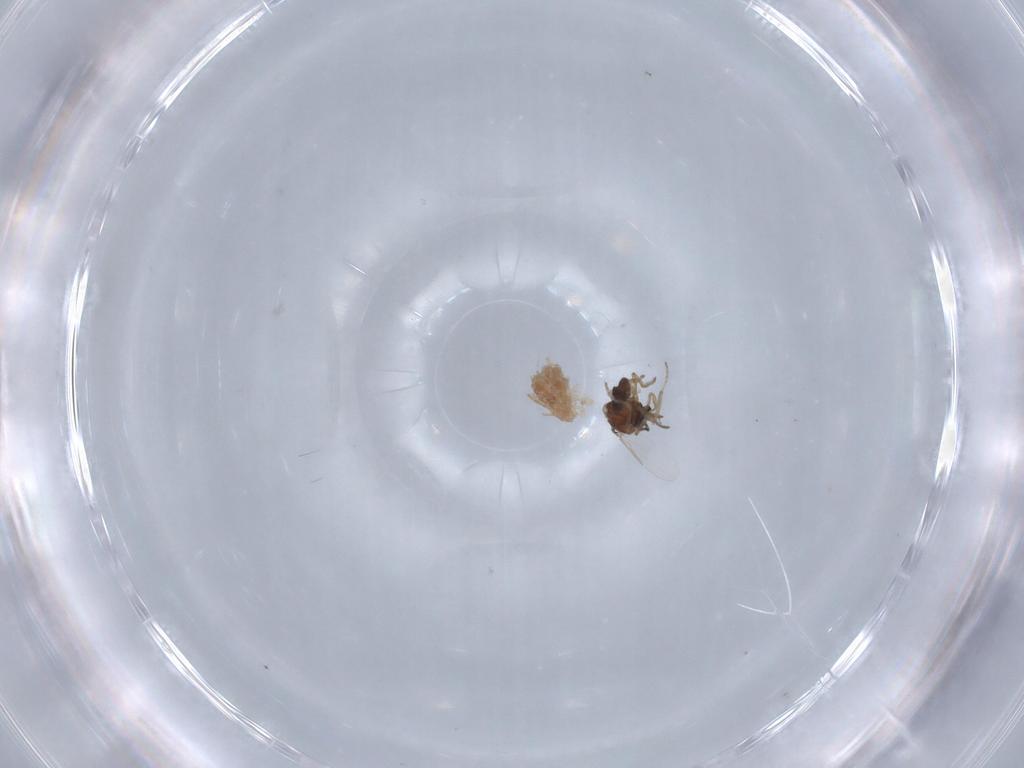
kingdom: Animalia
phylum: Arthropoda
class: Insecta
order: Diptera
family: Ceratopogonidae
